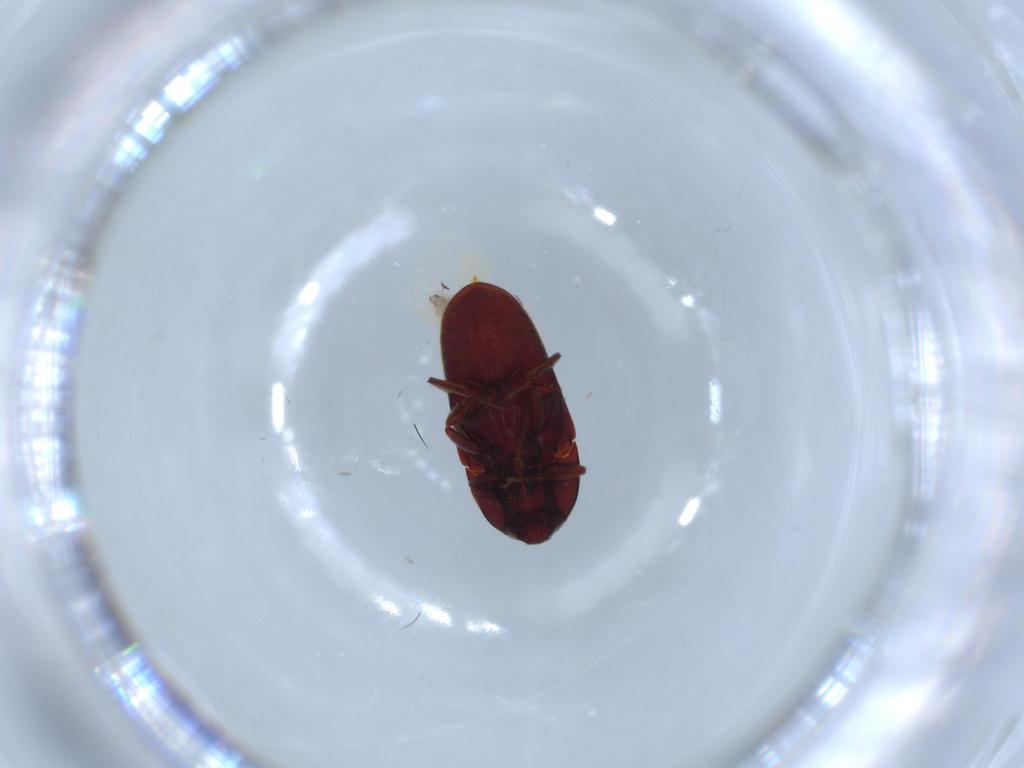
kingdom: Animalia
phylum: Arthropoda
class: Insecta
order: Coleoptera
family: Throscidae
